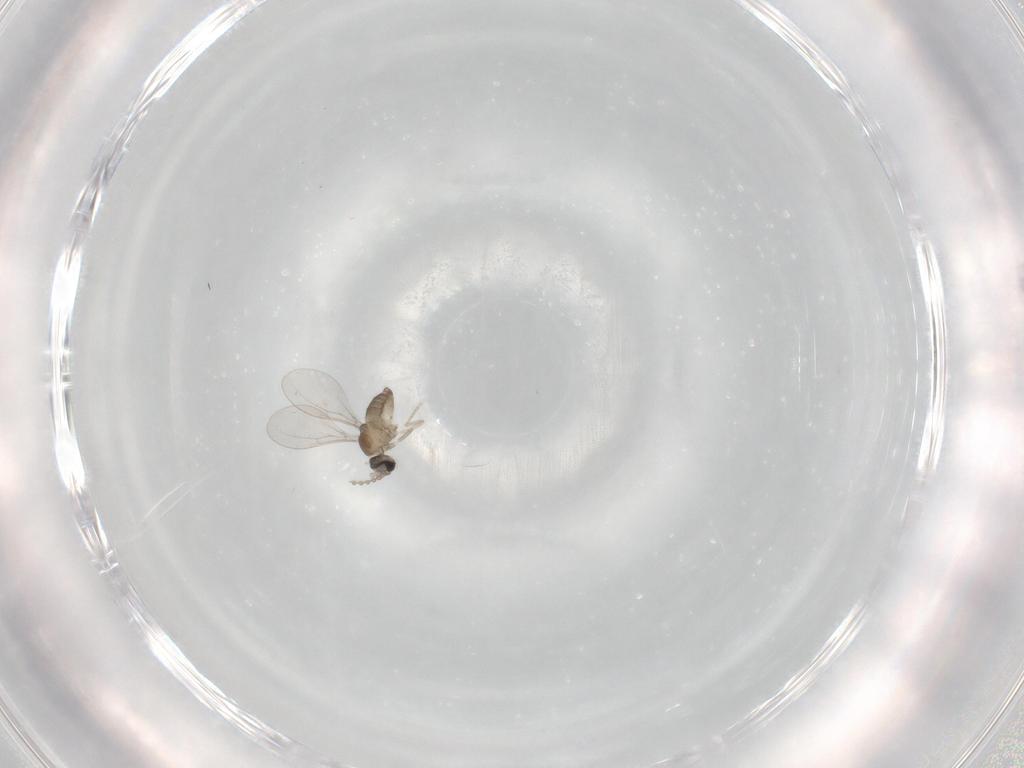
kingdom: Animalia
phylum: Arthropoda
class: Insecta
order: Diptera
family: Cecidomyiidae
